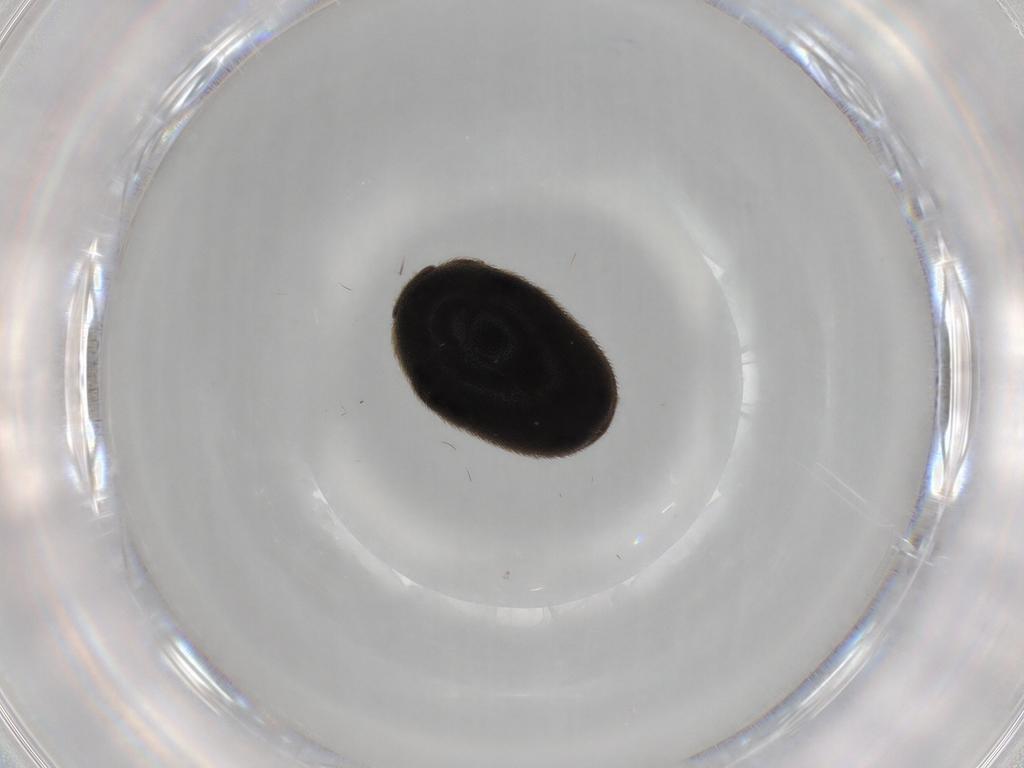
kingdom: Animalia
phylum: Arthropoda
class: Insecta
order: Coleoptera
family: Dermestidae
